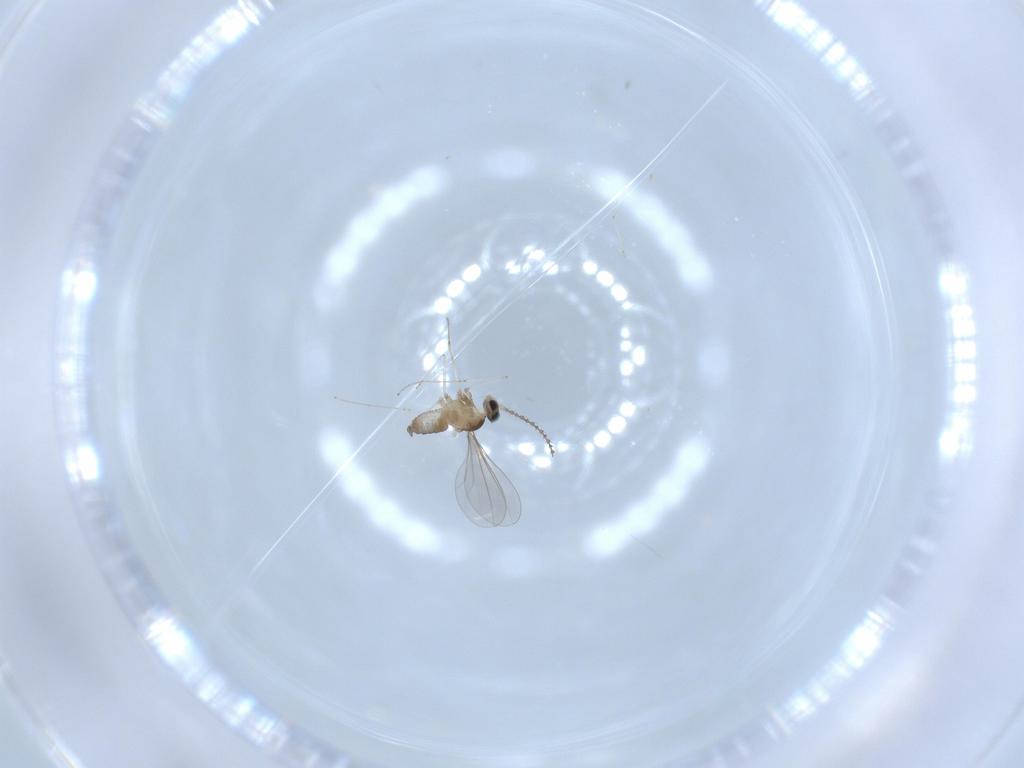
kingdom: Animalia
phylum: Arthropoda
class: Insecta
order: Diptera
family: Cecidomyiidae
